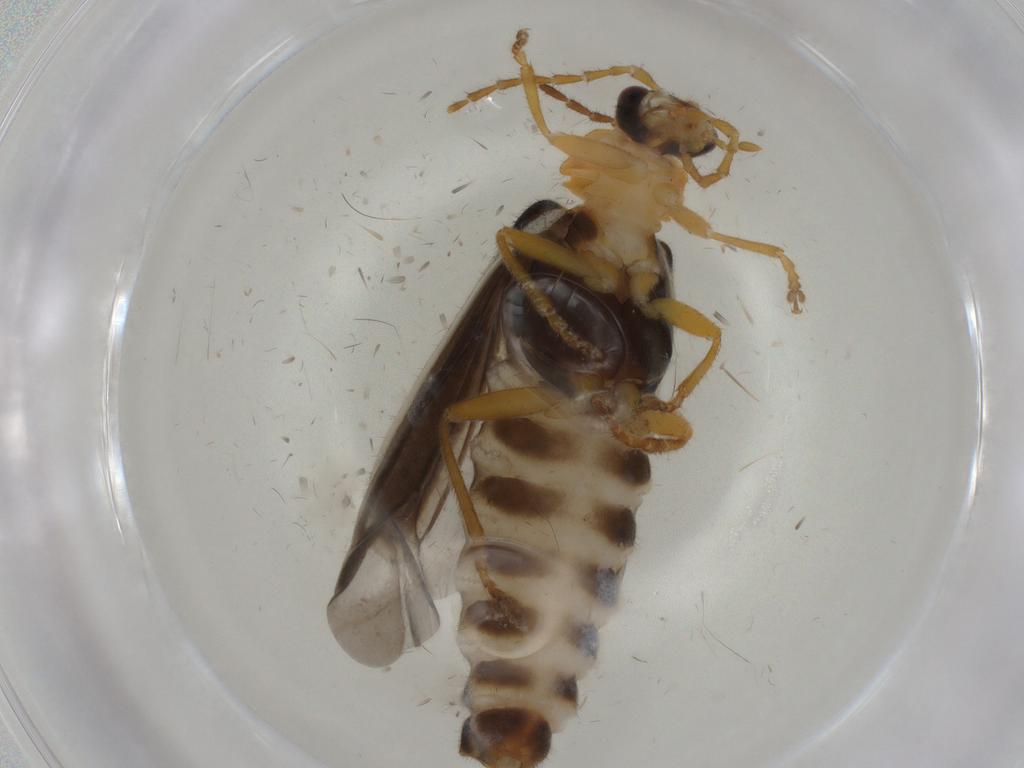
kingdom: Animalia
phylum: Arthropoda
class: Insecta
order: Coleoptera
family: Cantharidae
